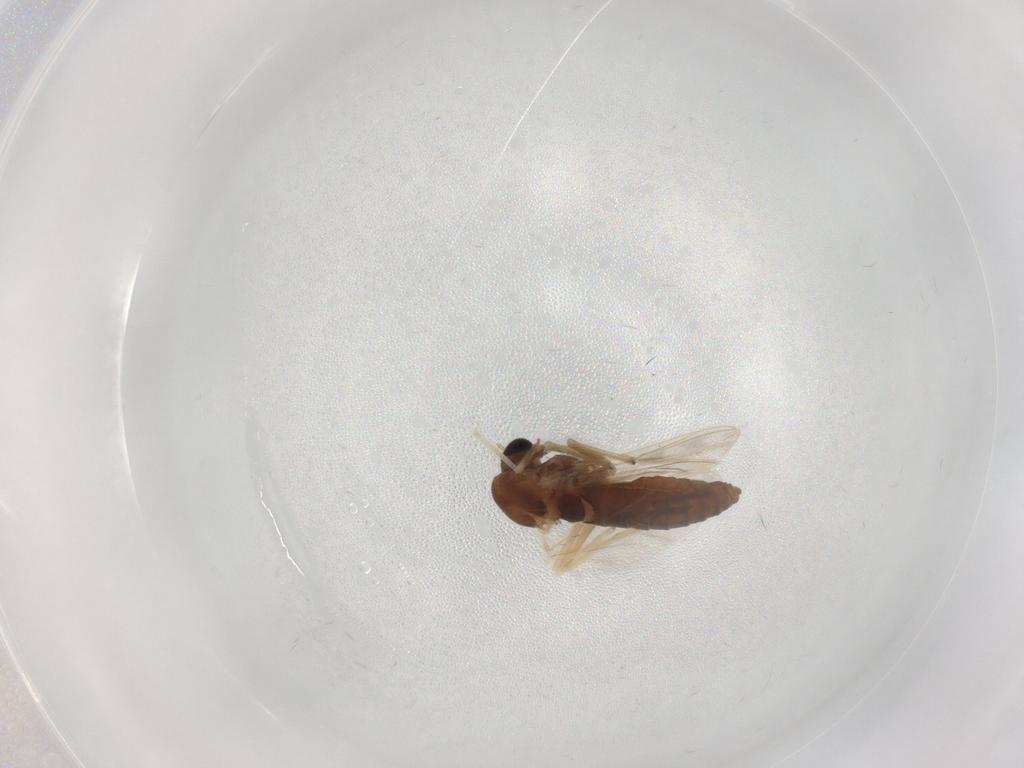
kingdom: Animalia
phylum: Arthropoda
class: Insecta
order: Diptera
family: Chironomidae
